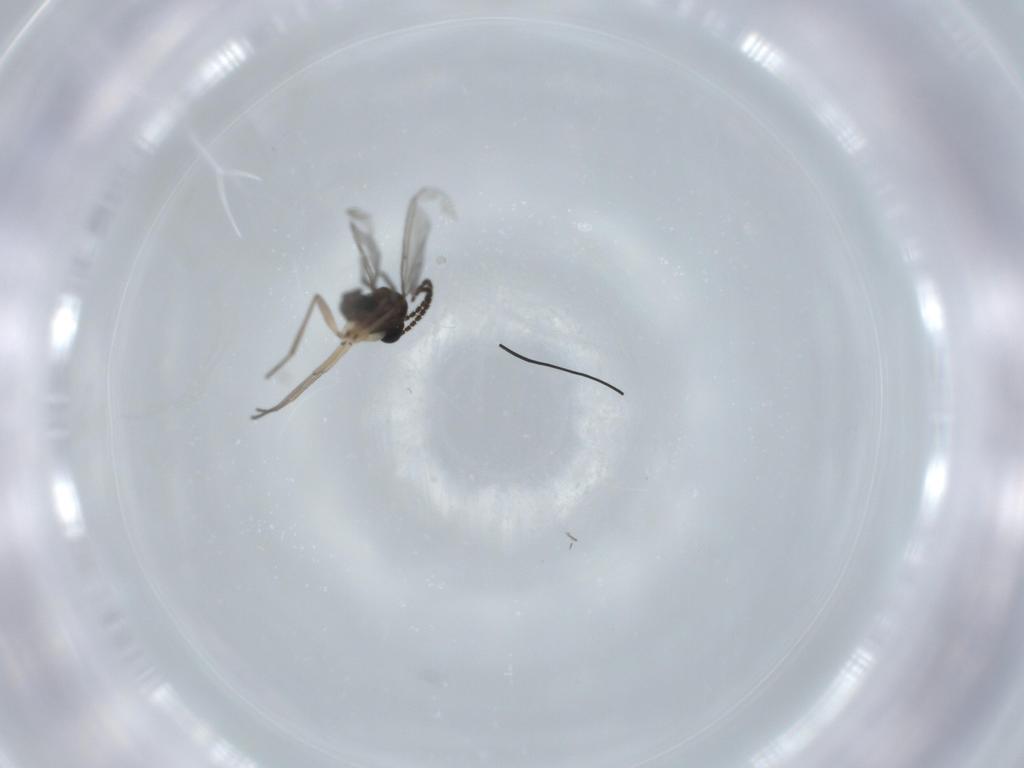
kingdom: Animalia
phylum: Arthropoda
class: Insecta
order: Diptera
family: Sciaridae
